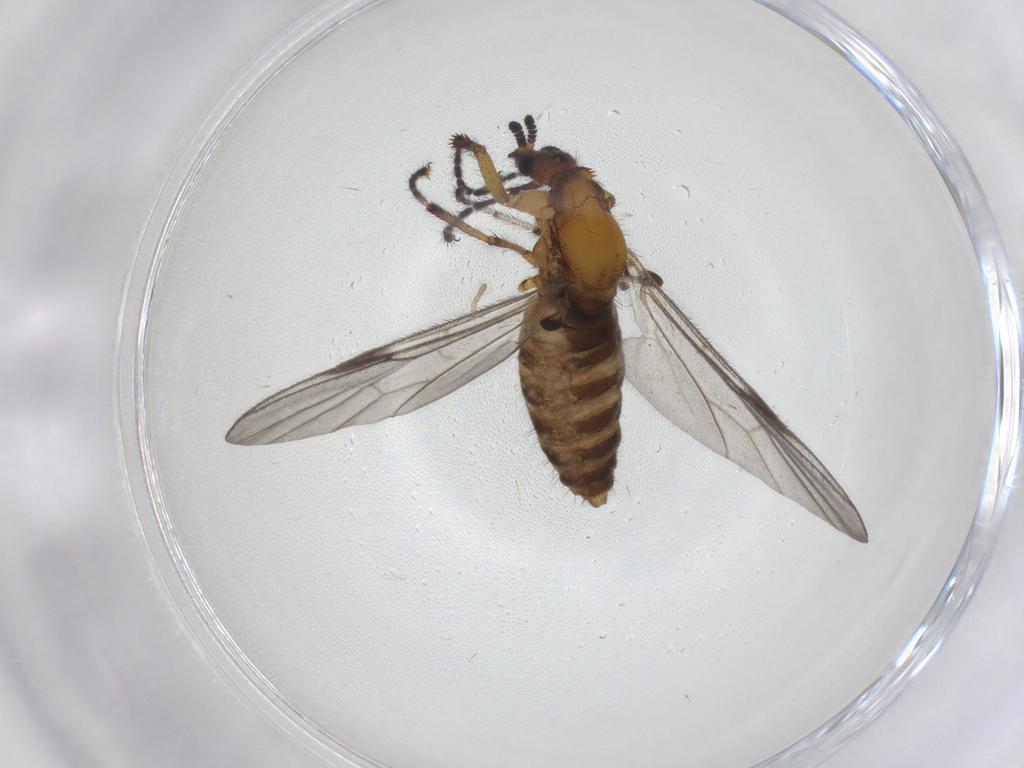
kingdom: Animalia
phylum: Arthropoda
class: Insecta
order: Diptera
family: Bibionidae
